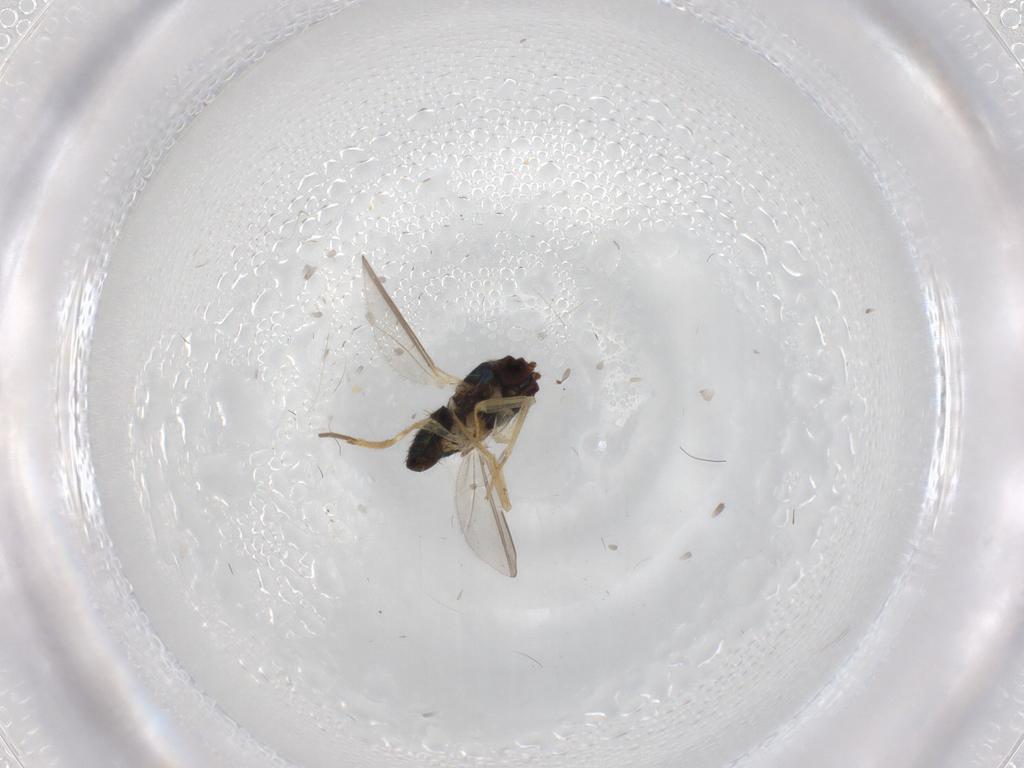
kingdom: Animalia
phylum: Arthropoda
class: Insecta
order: Diptera
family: Dolichopodidae
